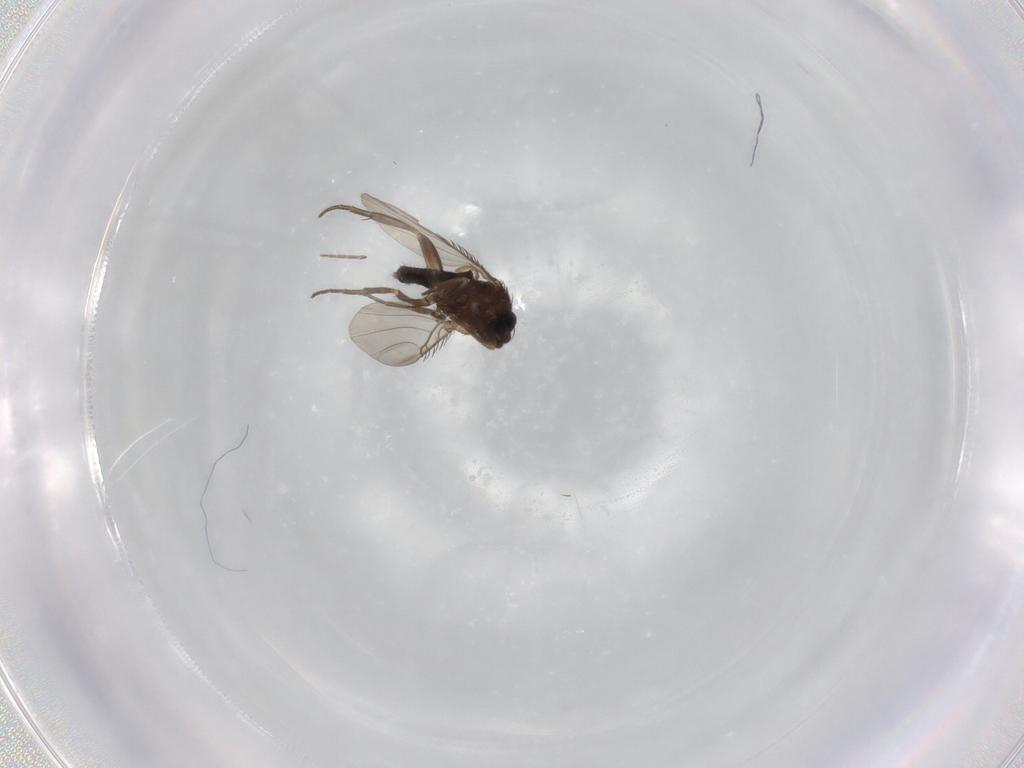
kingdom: Animalia
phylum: Arthropoda
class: Insecta
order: Diptera
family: Phoridae
